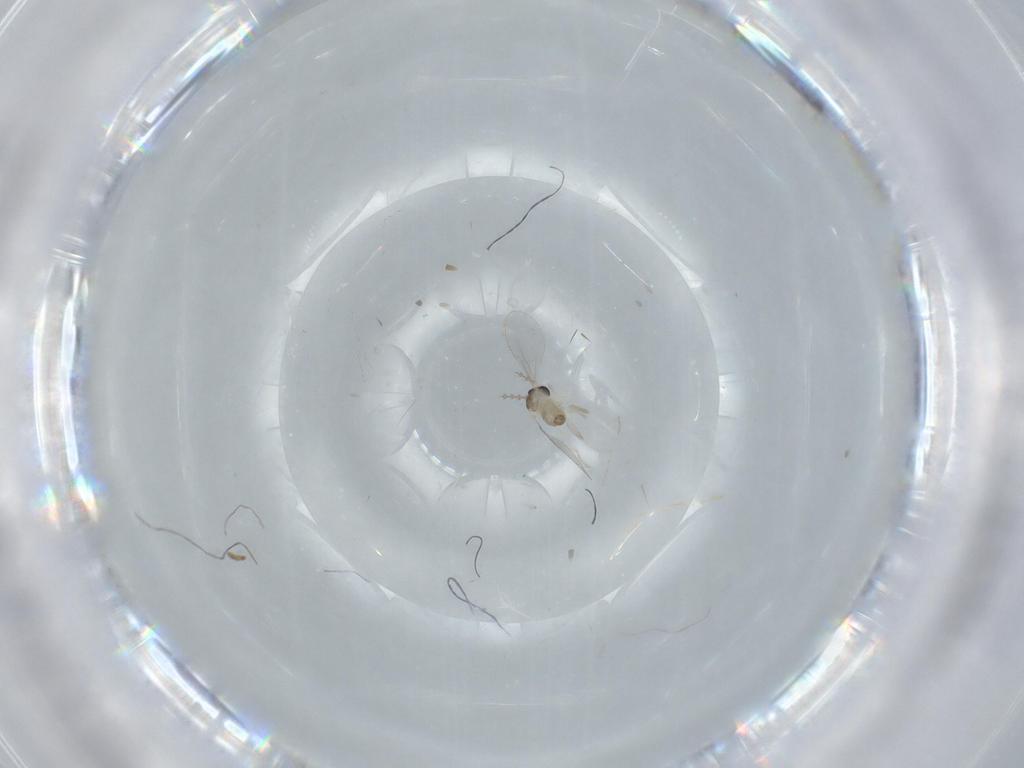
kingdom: Animalia
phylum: Arthropoda
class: Insecta
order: Diptera
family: Cecidomyiidae
